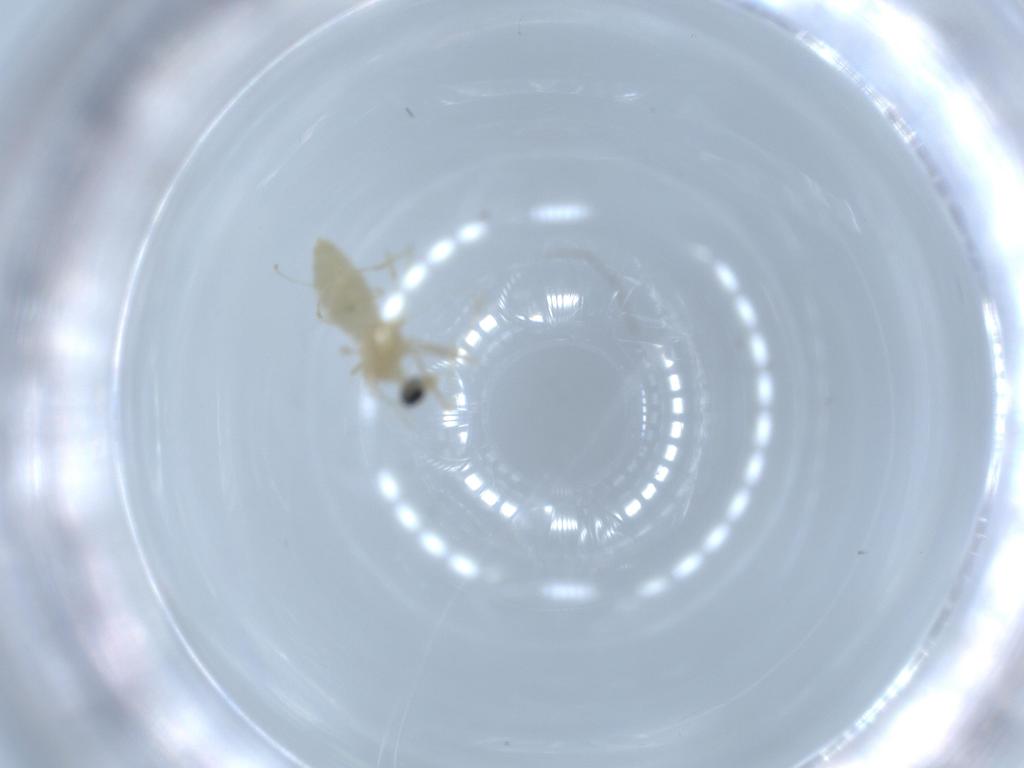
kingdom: Animalia
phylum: Arthropoda
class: Insecta
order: Diptera
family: Cecidomyiidae
